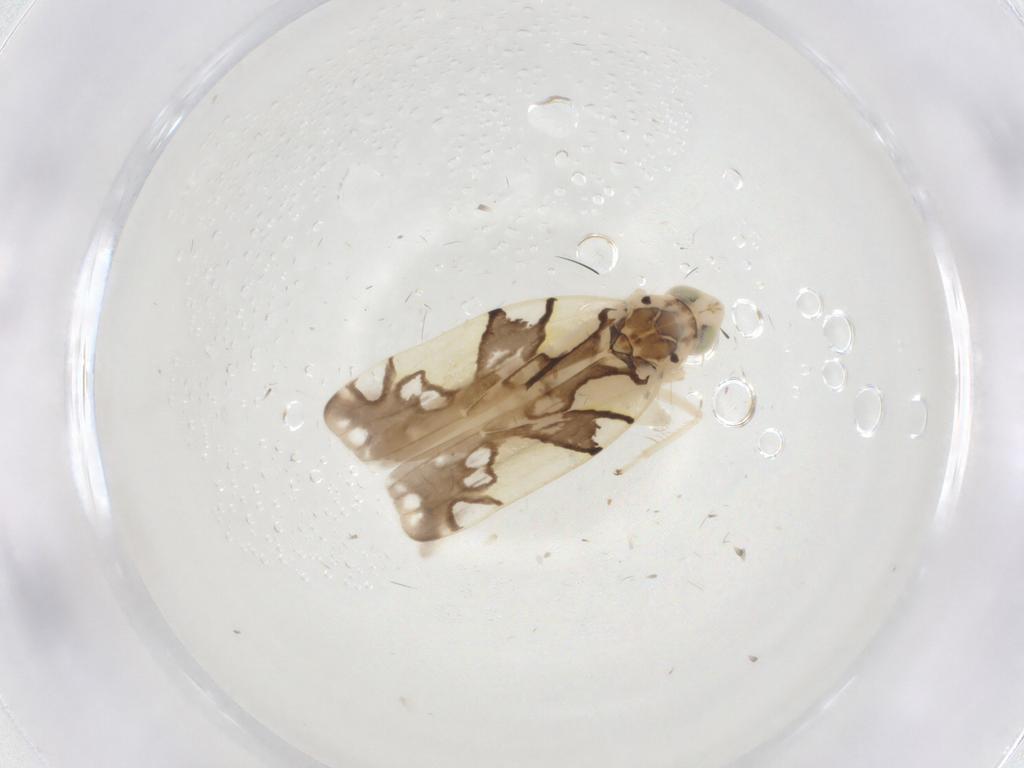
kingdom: Animalia
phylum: Arthropoda
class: Insecta
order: Hemiptera
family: Cicadellidae
